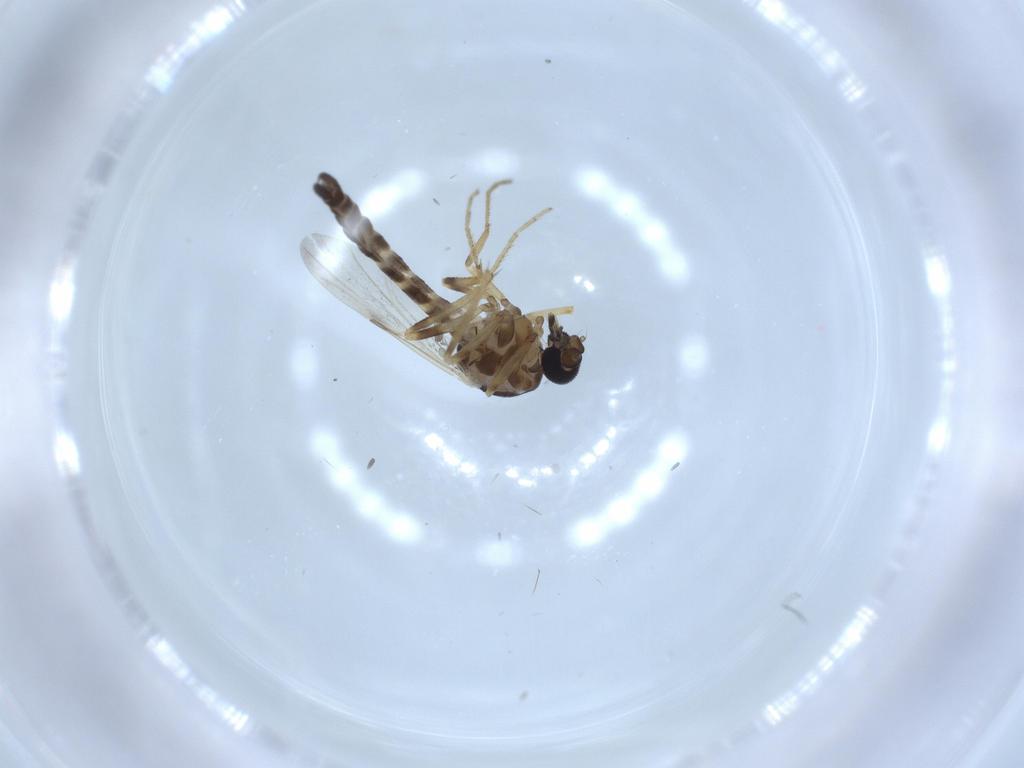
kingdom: Animalia
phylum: Arthropoda
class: Insecta
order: Diptera
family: Ceratopogonidae
